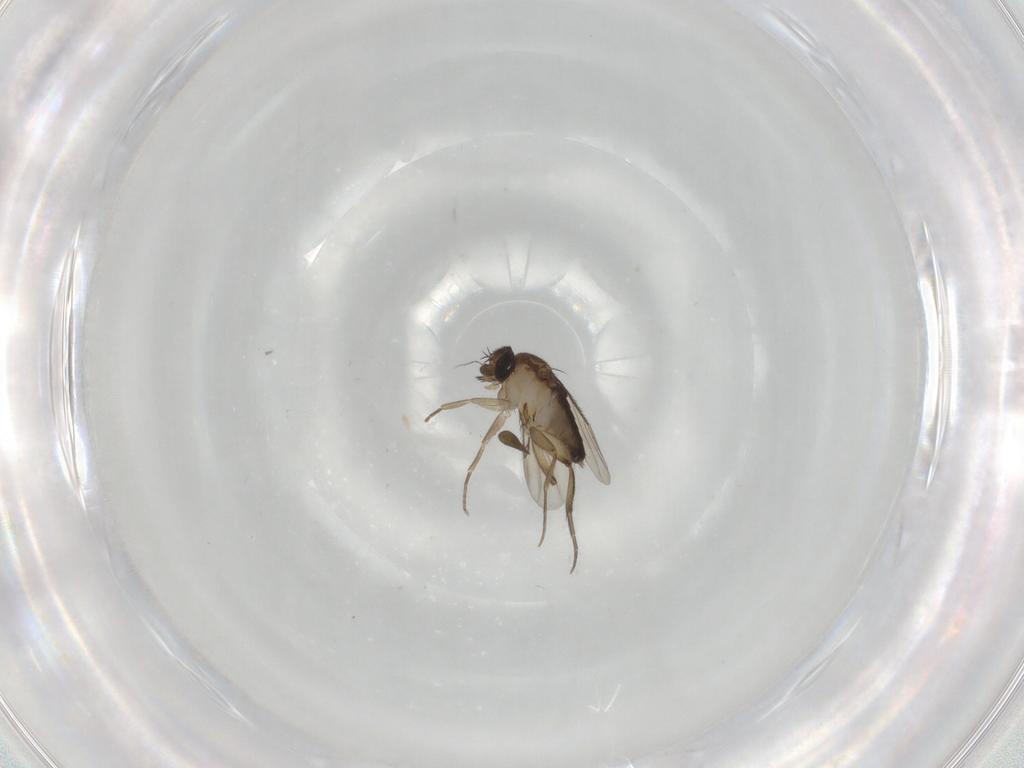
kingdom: Animalia
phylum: Arthropoda
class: Insecta
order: Diptera
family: Phoridae
